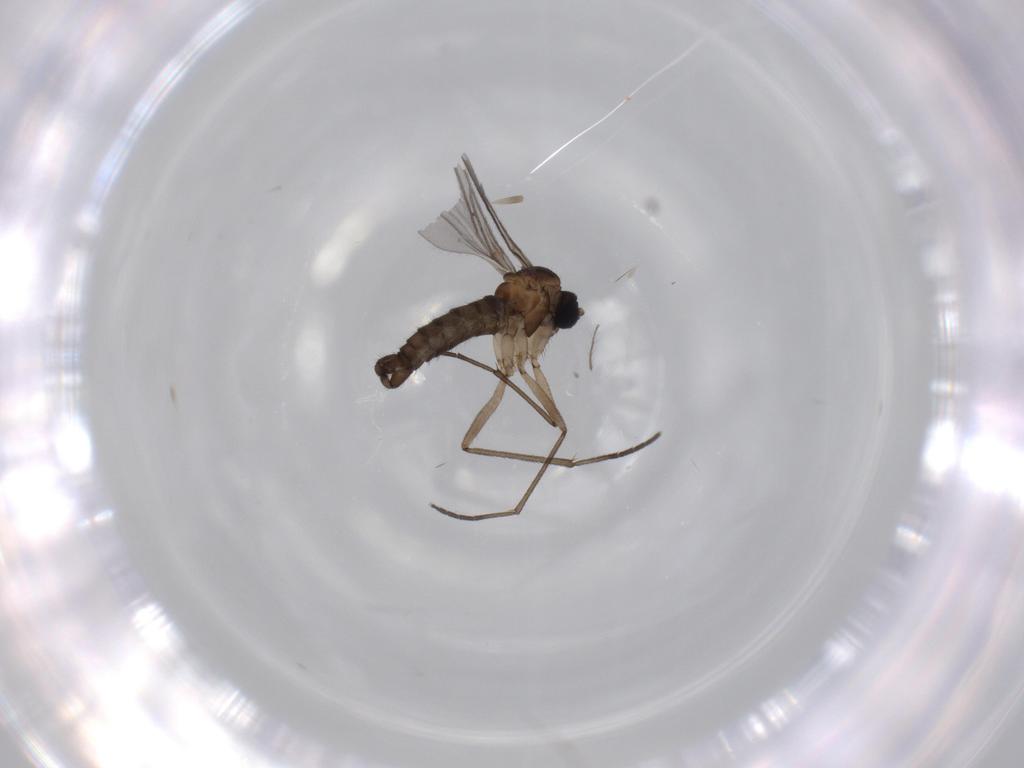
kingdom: Animalia
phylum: Arthropoda
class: Insecta
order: Diptera
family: Sciaridae
